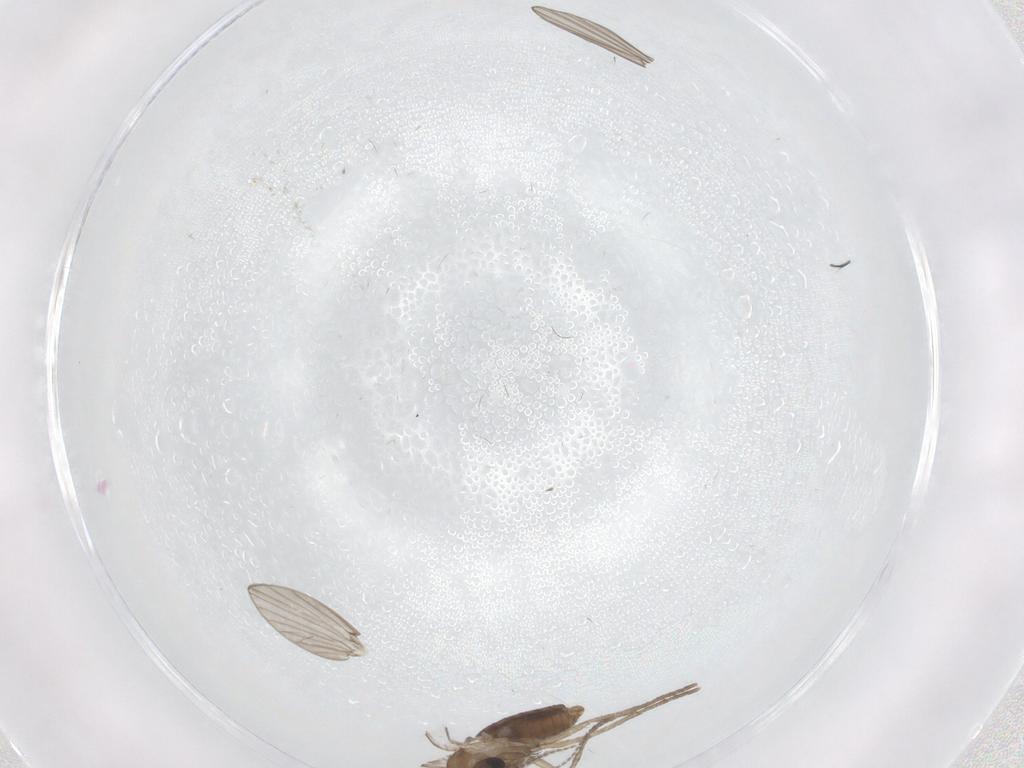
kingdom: Animalia
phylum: Arthropoda
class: Insecta
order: Diptera
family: Psychodidae
